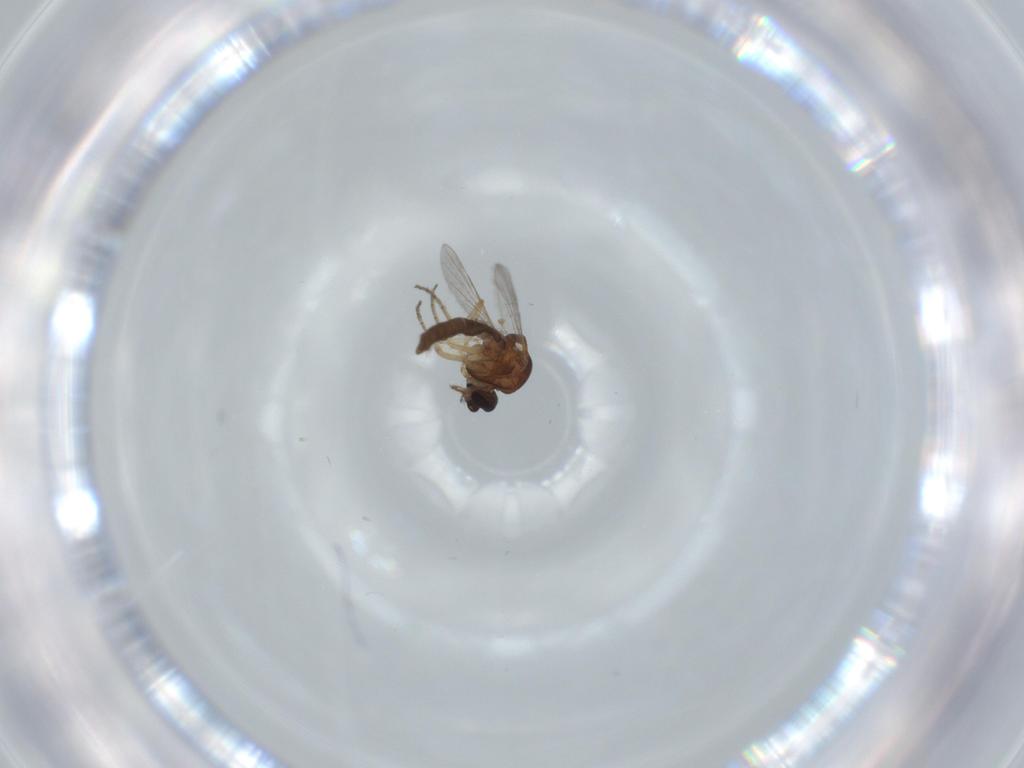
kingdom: Animalia
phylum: Arthropoda
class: Insecta
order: Diptera
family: Ceratopogonidae
